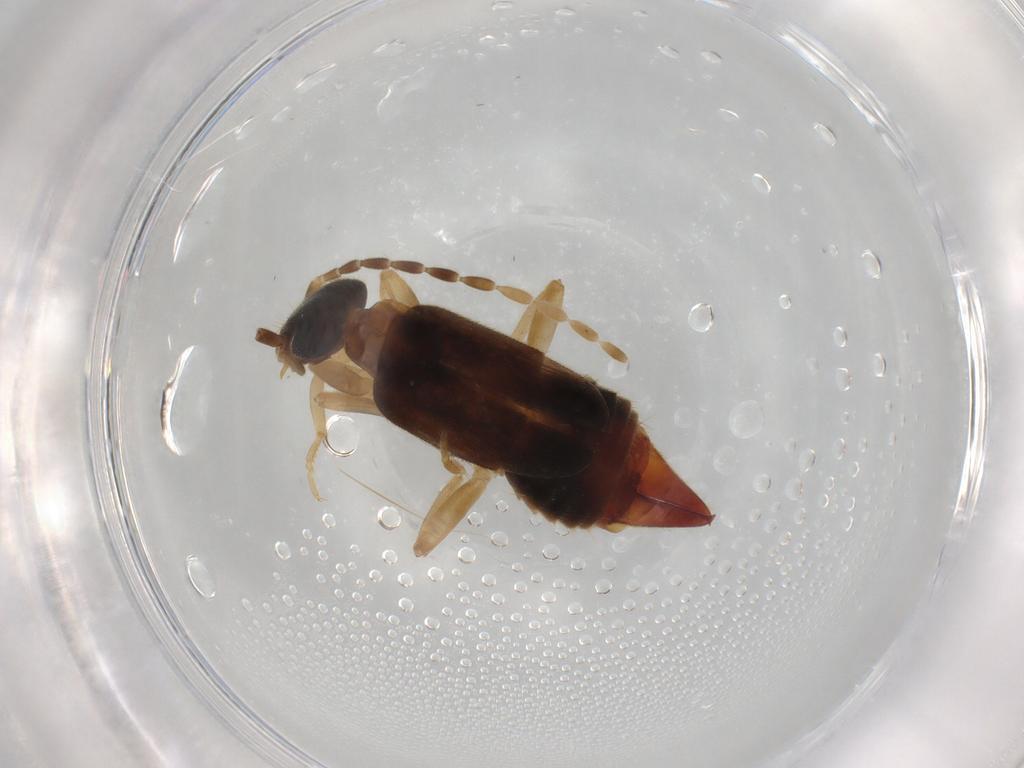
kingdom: Animalia
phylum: Arthropoda
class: Insecta
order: Dermaptera
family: Spongiphoridae
